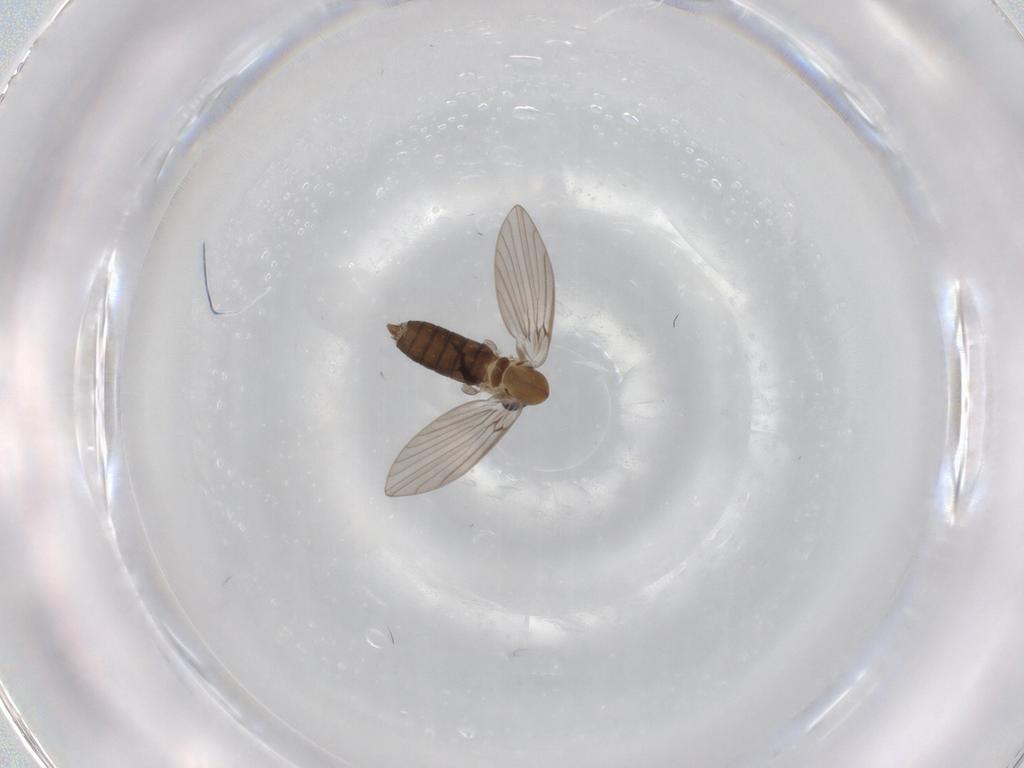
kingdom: Animalia
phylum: Arthropoda
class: Insecta
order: Diptera
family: Psychodidae
